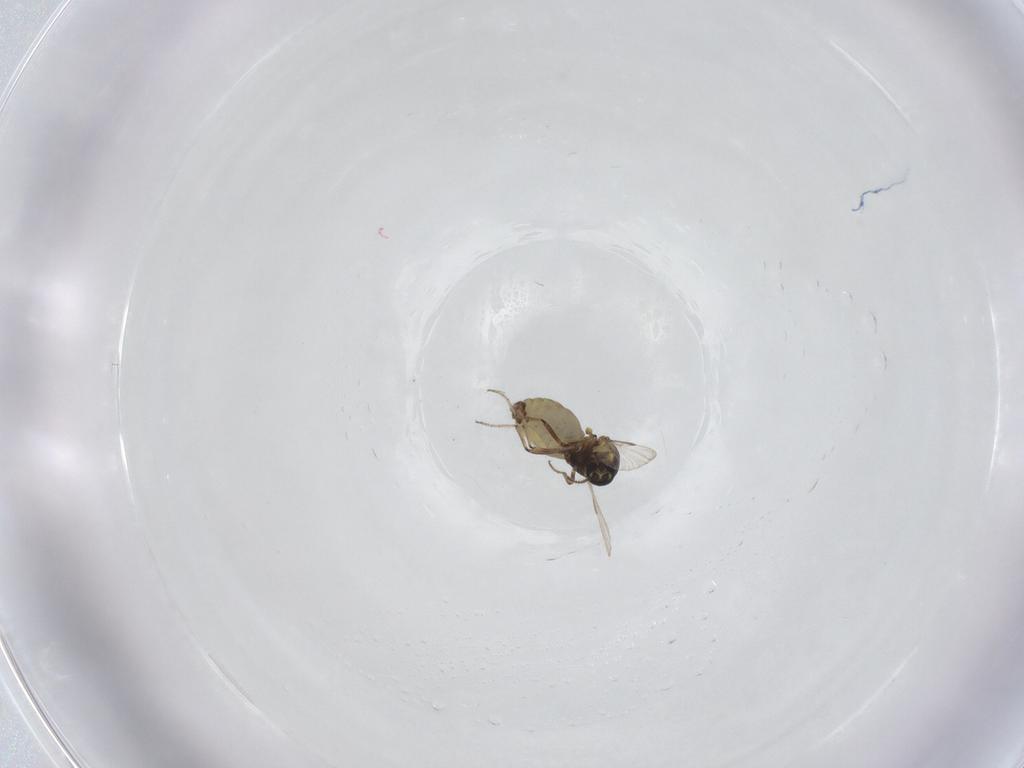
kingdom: Animalia
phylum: Arthropoda
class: Insecta
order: Diptera
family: Ceratopogonidae
